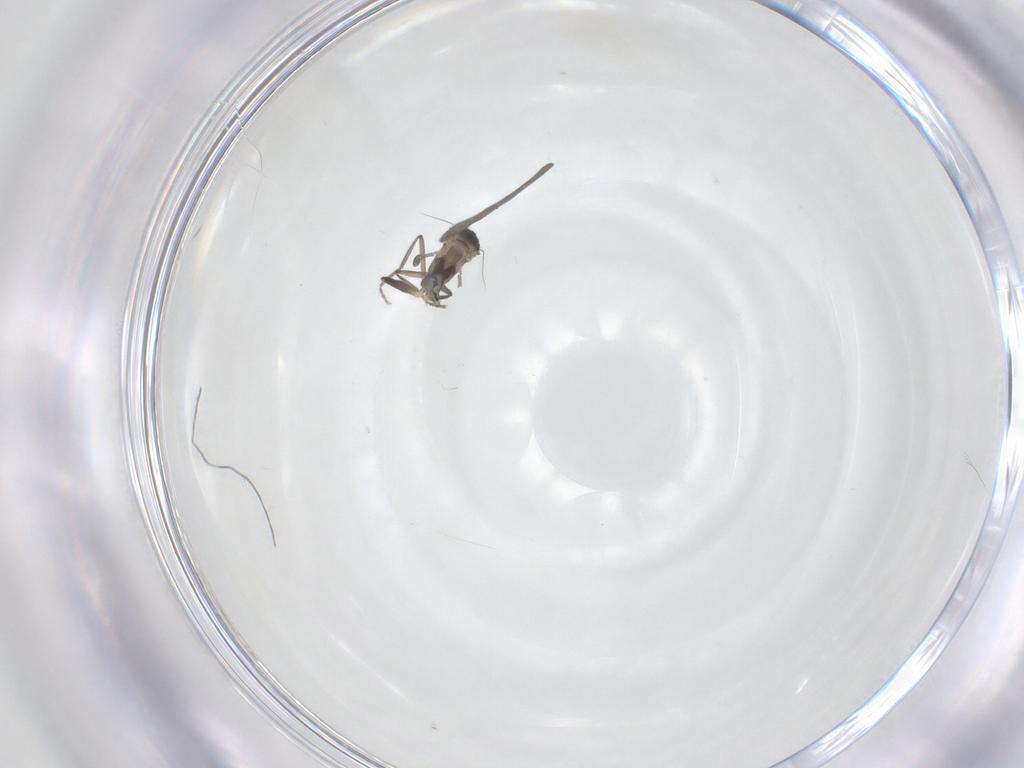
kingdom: Animalia
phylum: Arthropoda
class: Insecta
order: Diptera
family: Phoridae
